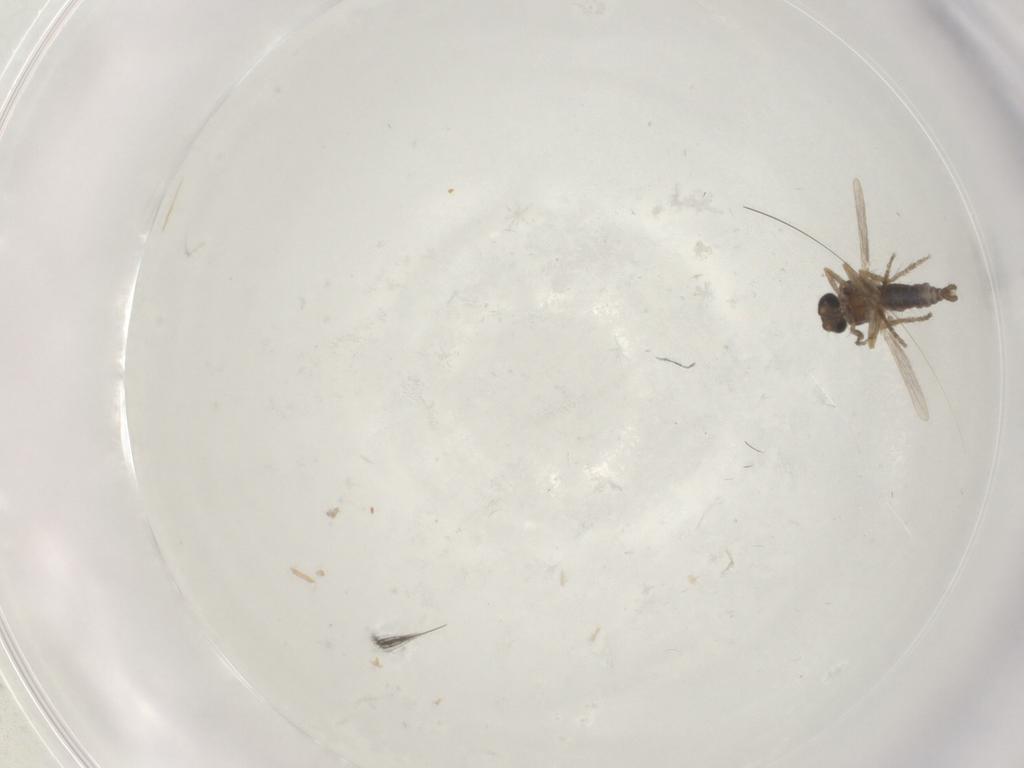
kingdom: Animalia
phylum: Arthropoda
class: Insecta
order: Diptera
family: Ceratopogonidae
